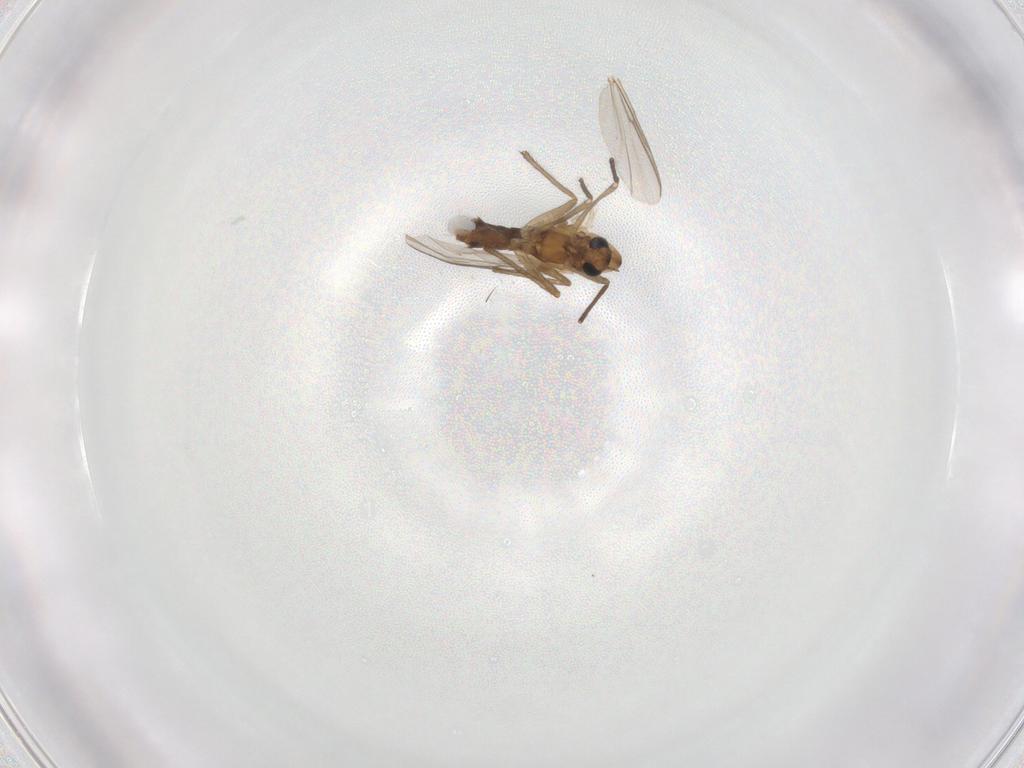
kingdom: Animalia
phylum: Arthropoda
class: Insecta
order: Diptera
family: Chironomidae
